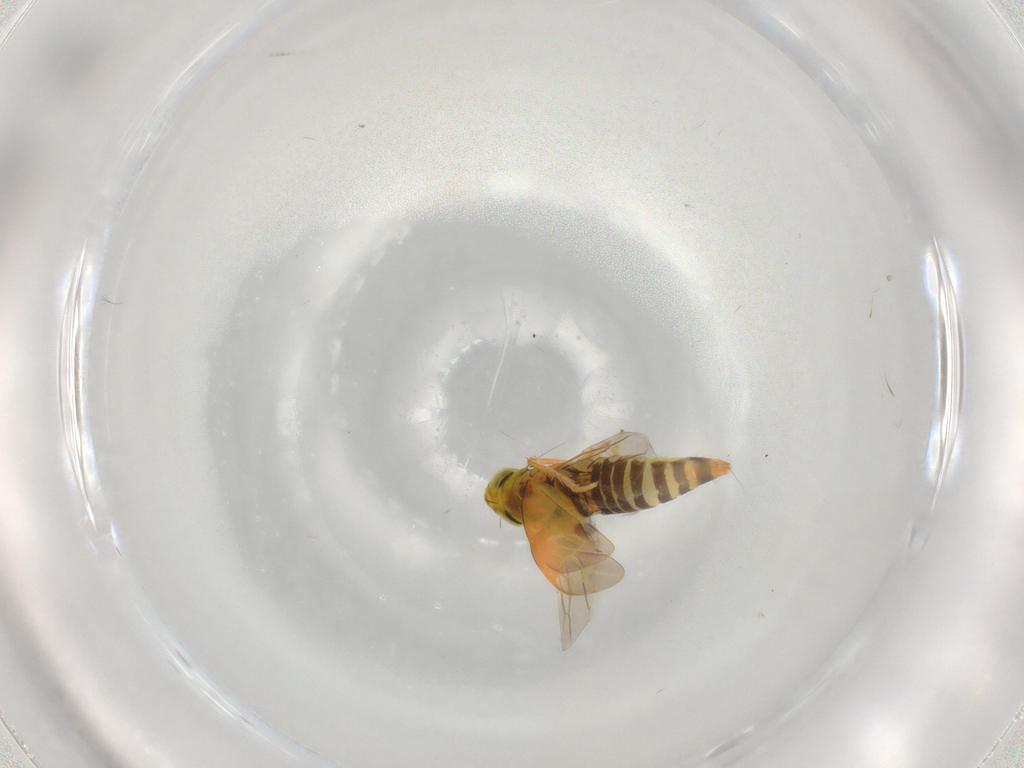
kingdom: Animalia
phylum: Arthropoda
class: Insecta
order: Hemiptera
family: Cicadellidae
